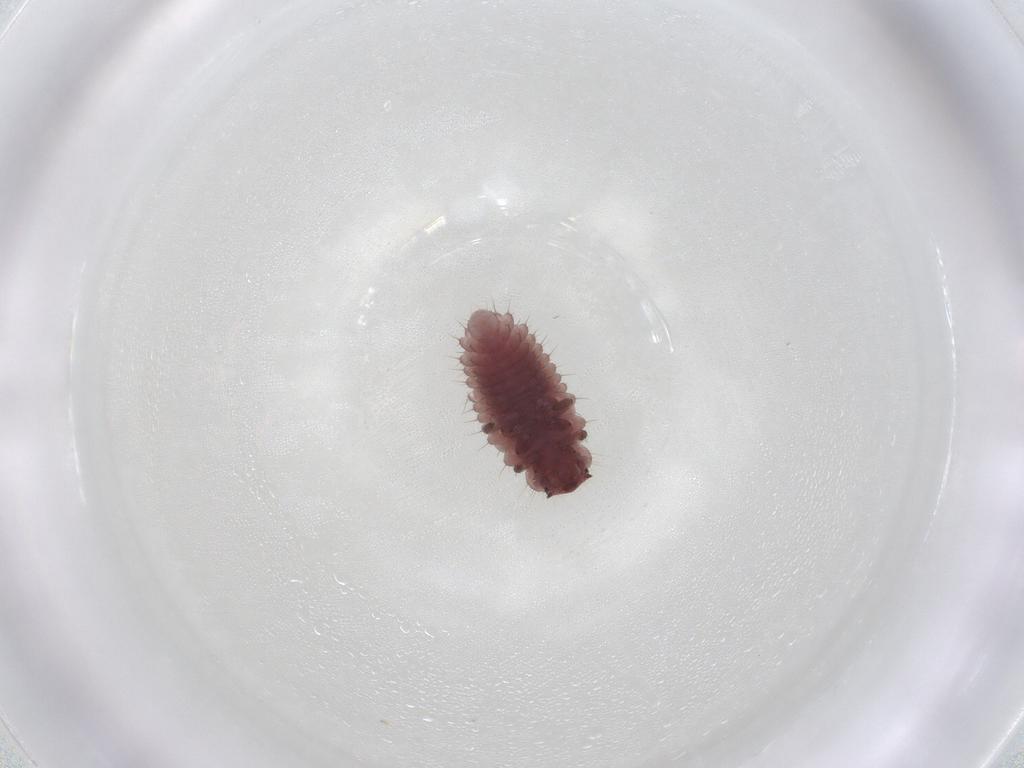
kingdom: Animalia
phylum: Arthropoda
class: Insecta
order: Coleoptera
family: Coccinellidae
